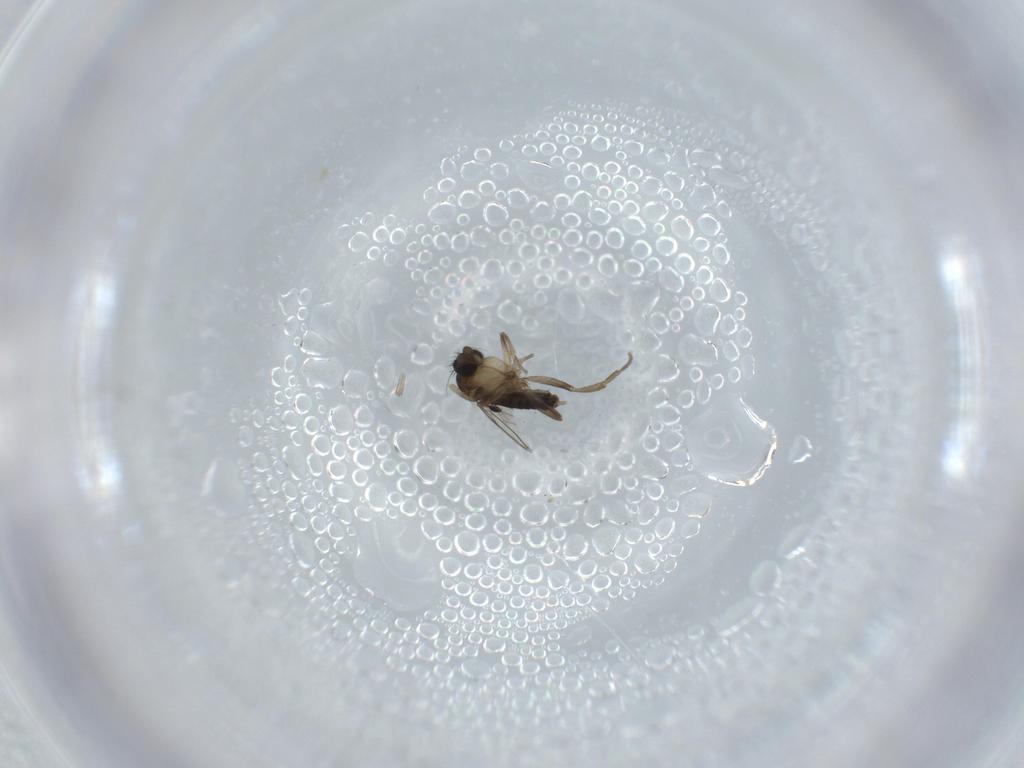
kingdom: Animalia
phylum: Arthropoda
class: Insecta
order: Diptera
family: Phoridae
